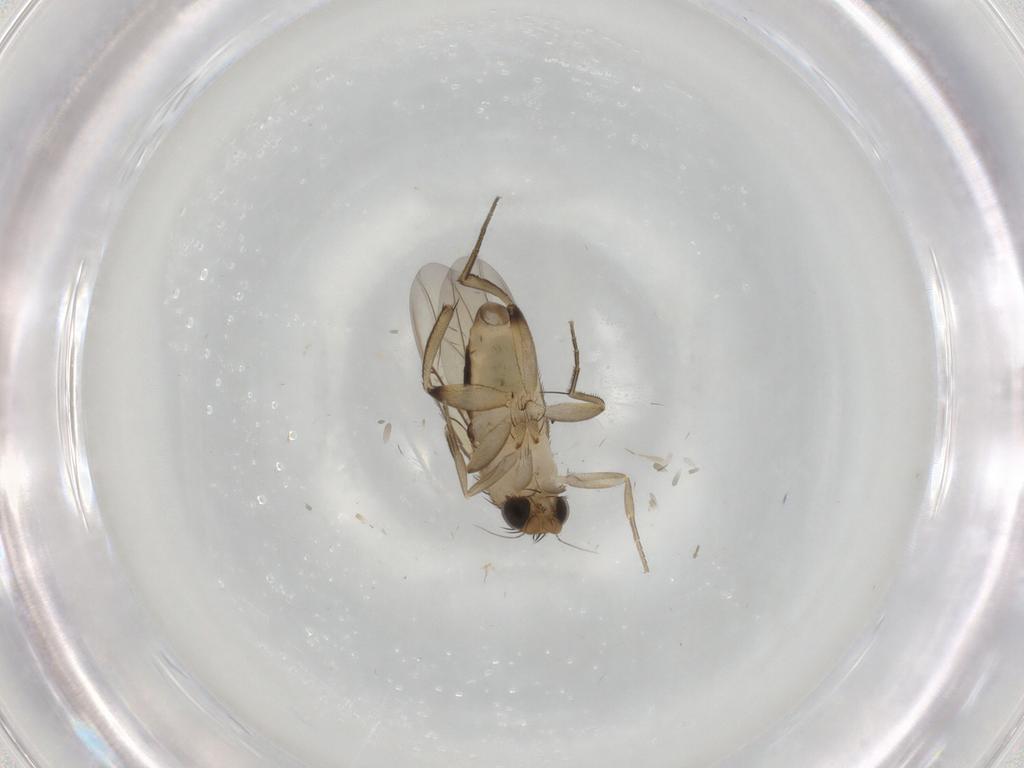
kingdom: Animalia
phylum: Arthropoda
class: Insecta
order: Diptera
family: Phoridae
